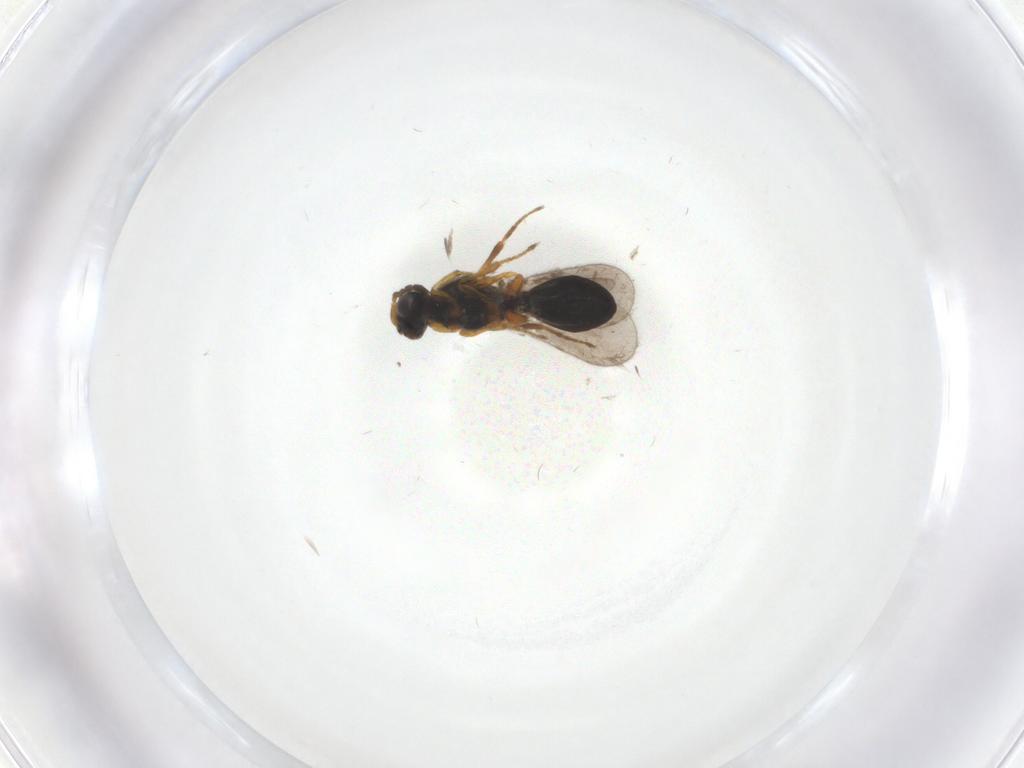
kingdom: Animalia
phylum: Arthropoda
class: Insecta
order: Hymenoptera
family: Platygastridae
